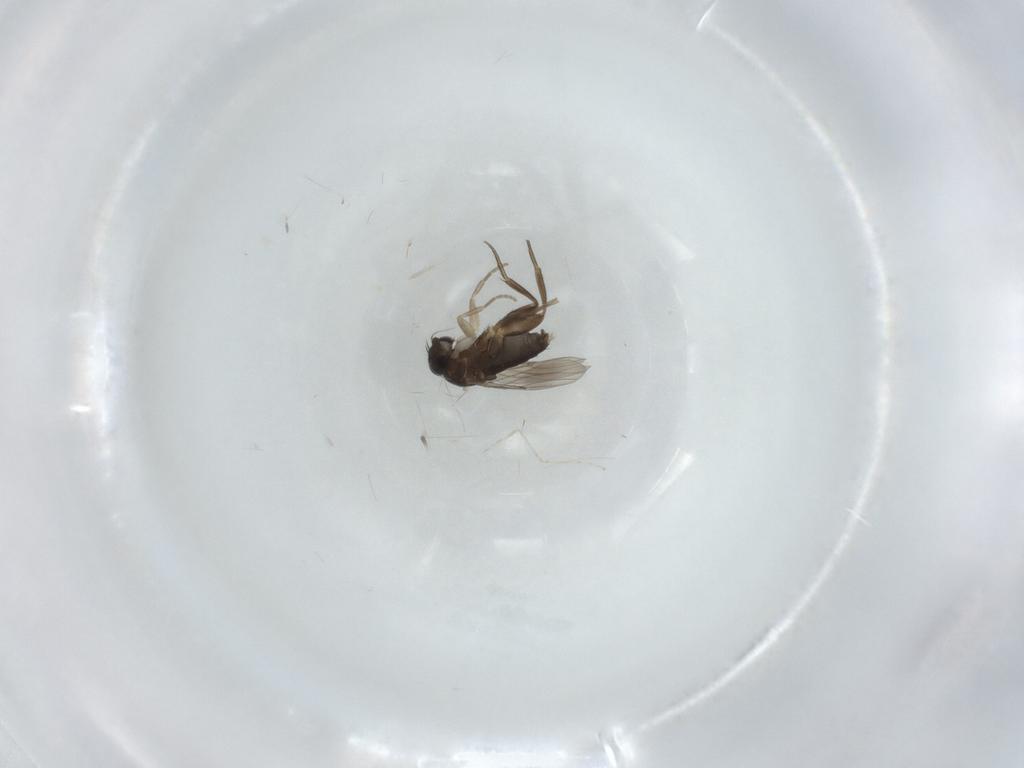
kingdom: Animalia
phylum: Arthropoda
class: Insecta
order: Diptera
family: Phoridae
